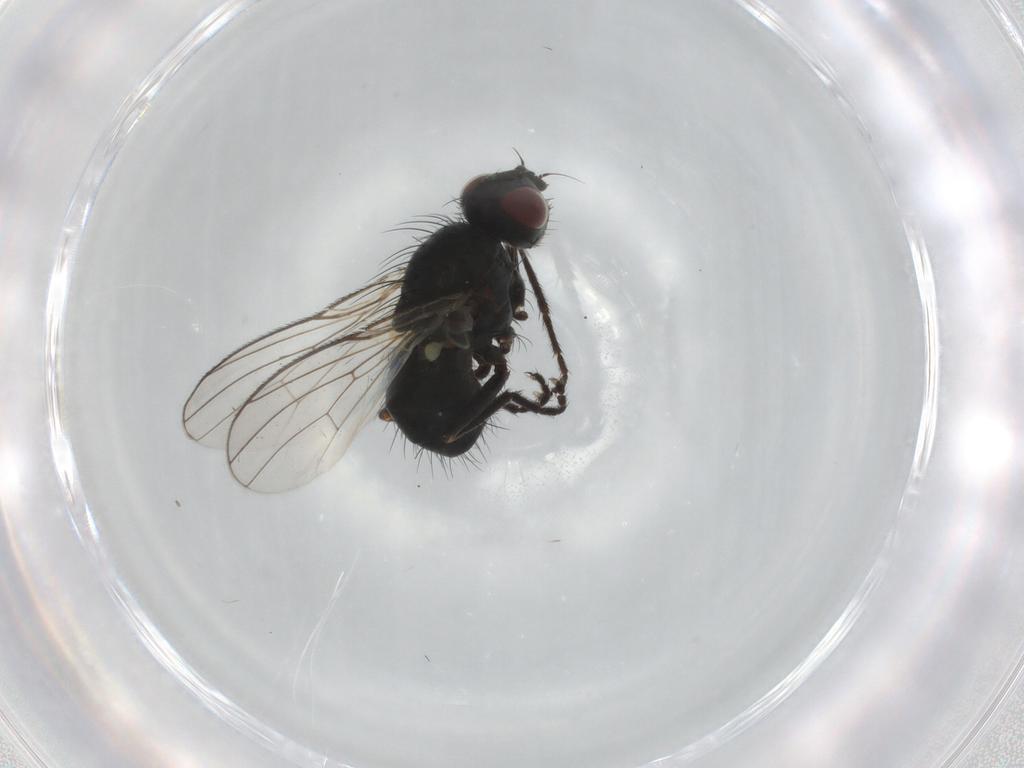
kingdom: Animalia
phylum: Arthropoda
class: Insecta
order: Diptera
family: Muscidae
